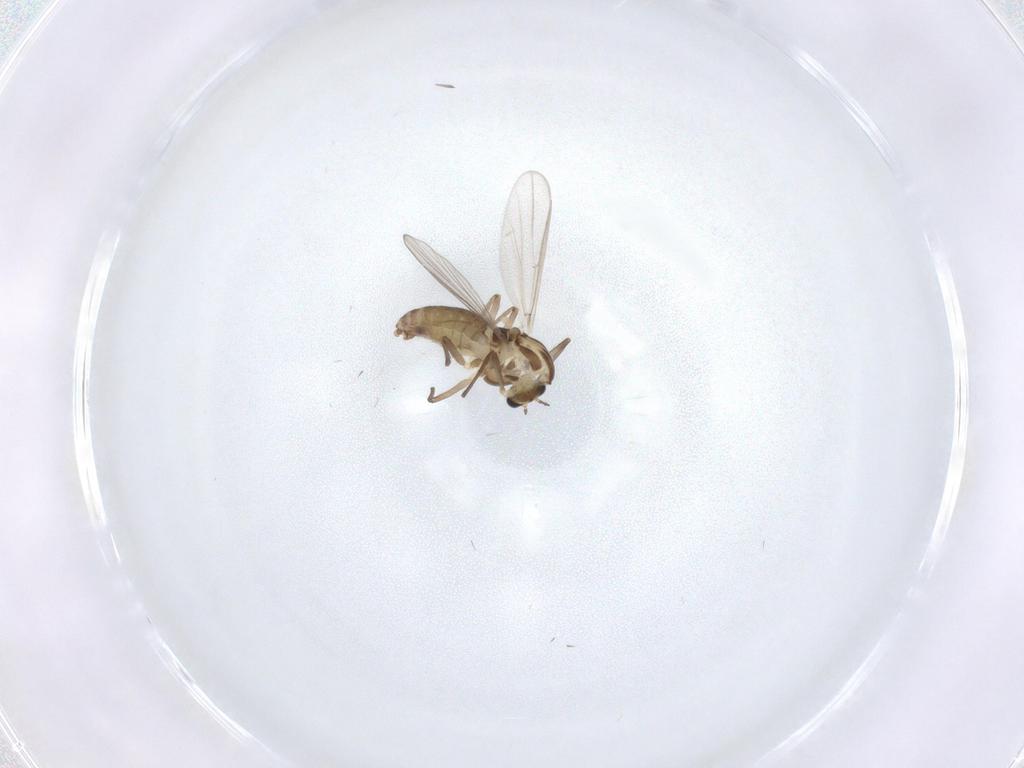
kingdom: Animalia
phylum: Arthropoda
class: Insecta
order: Diptera
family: Chironomidae
